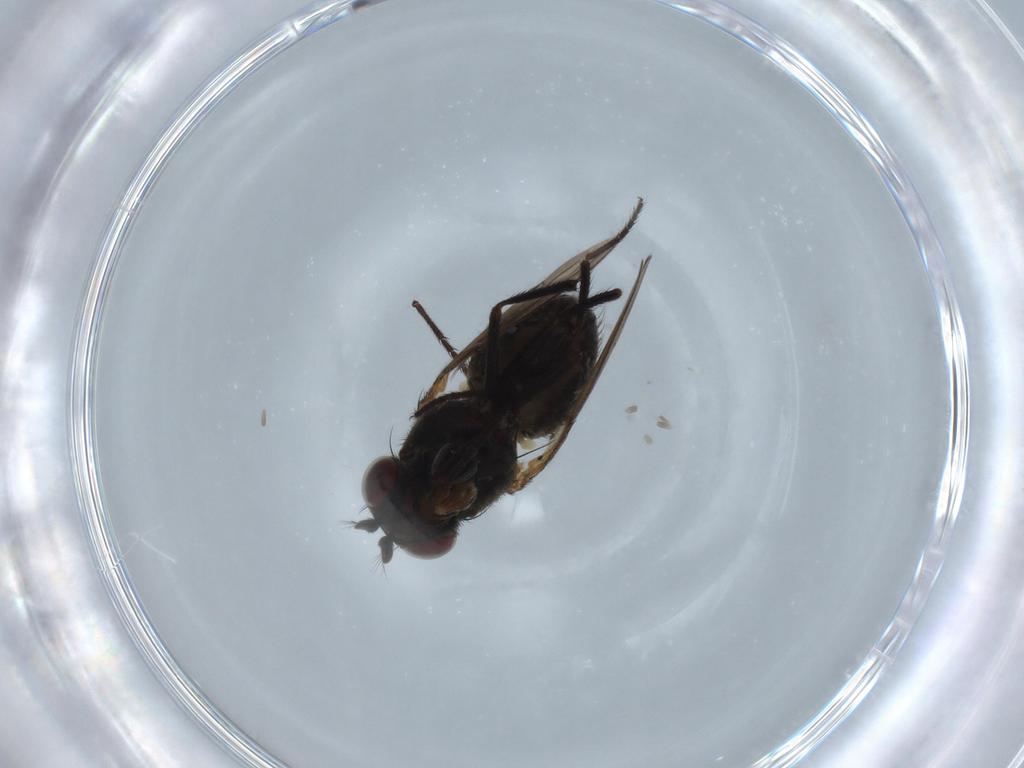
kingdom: Animalia
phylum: Arthropoda
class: Insecta
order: Diptera
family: Ephydridae
